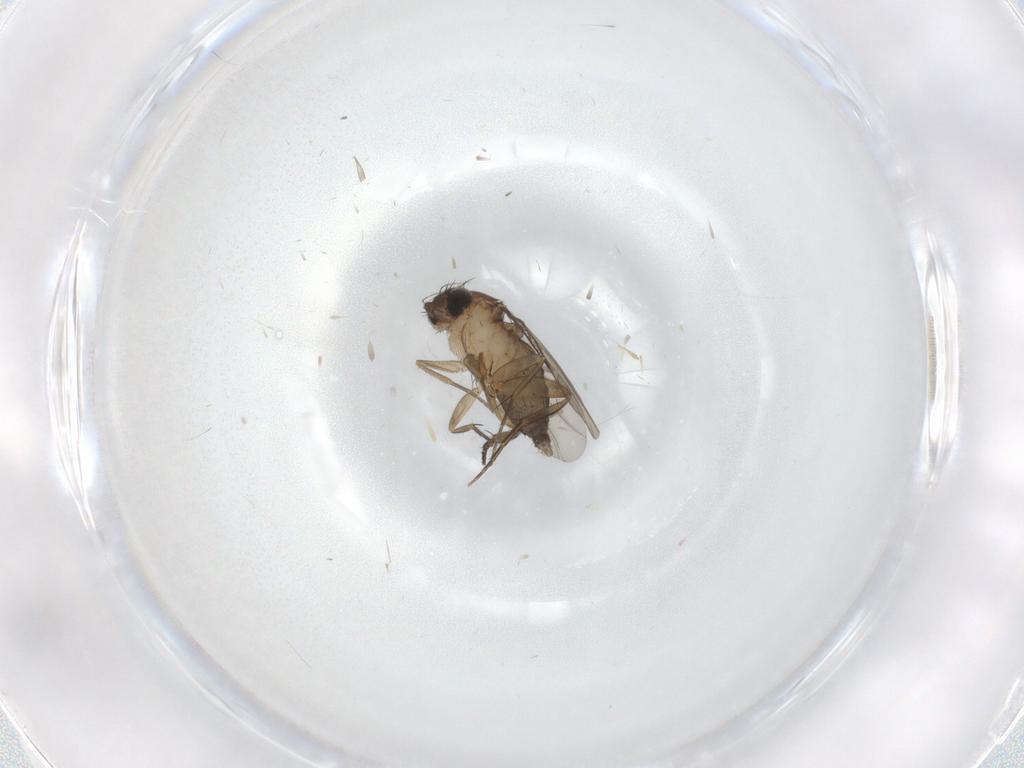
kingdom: Animalia
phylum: Arthropoda
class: Insecta
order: Diptera
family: Phoridae
